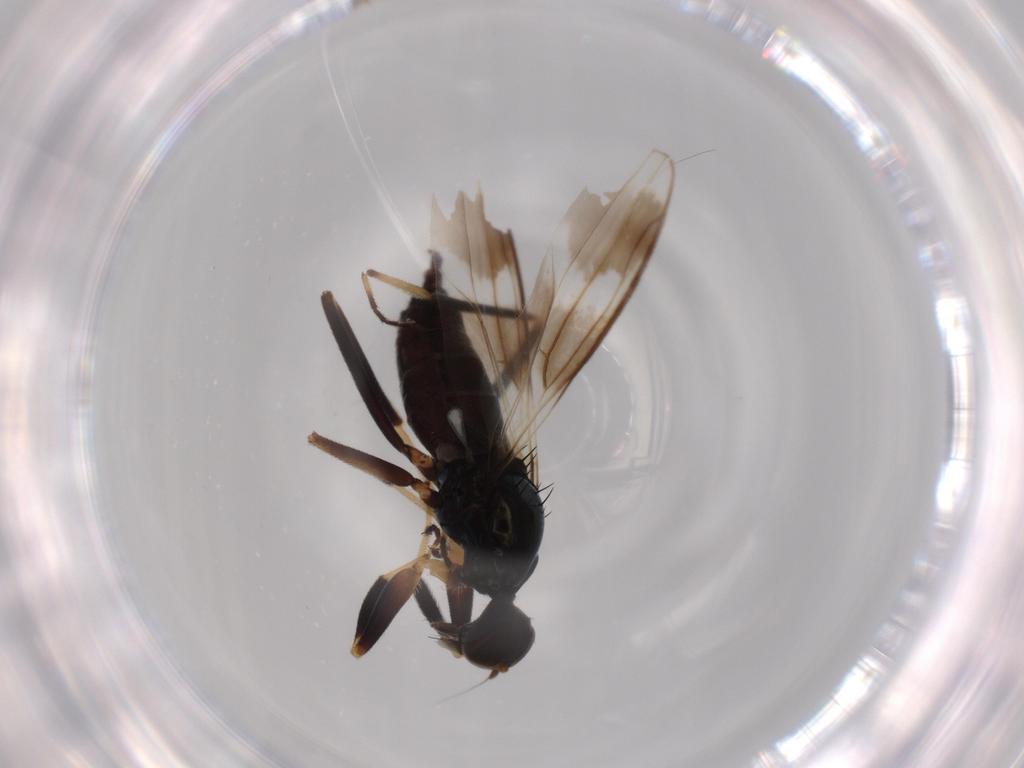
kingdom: Animalia
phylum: Arthropoda
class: Insecta
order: Diptera
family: Hybotidae
